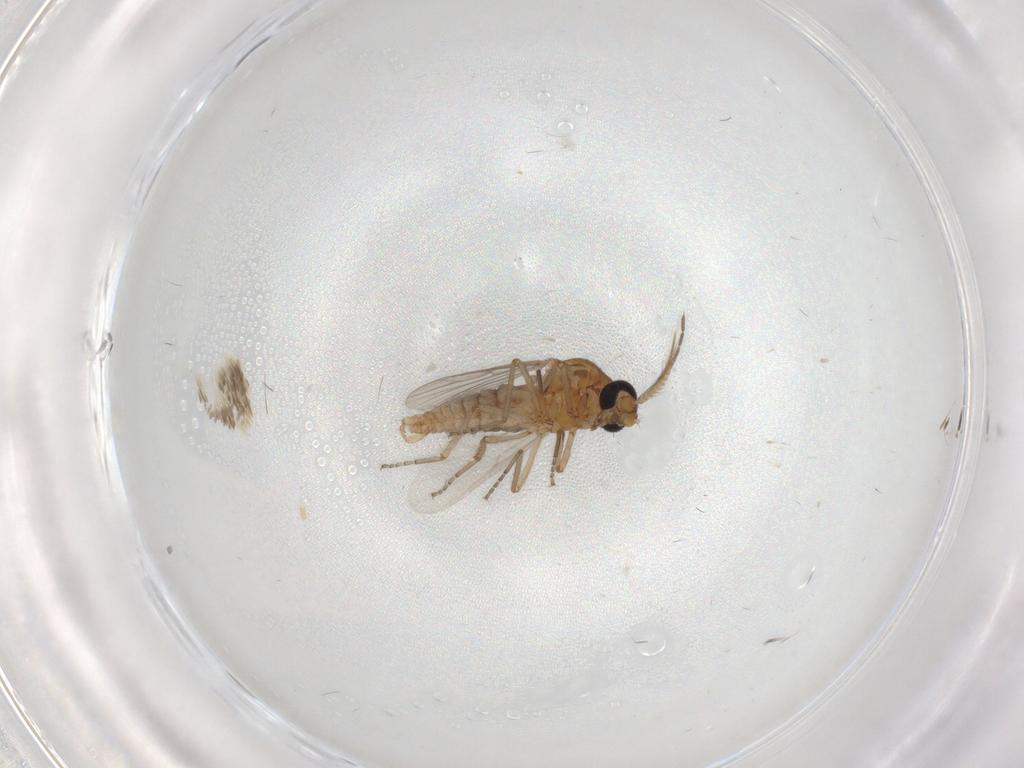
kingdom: Animalia
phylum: Arthropoda
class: Insecta
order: Diptera
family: Ceratopogonidae
